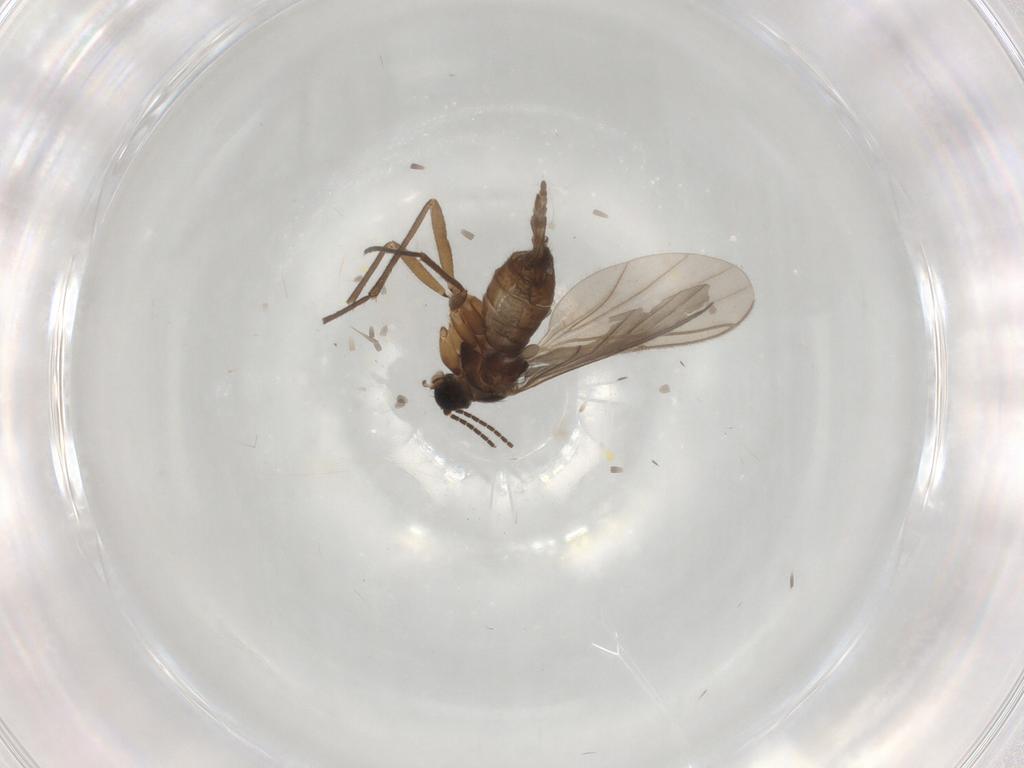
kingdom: Animalia
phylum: Arthropoda
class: Insecta
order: Diptera
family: Sciaridae
